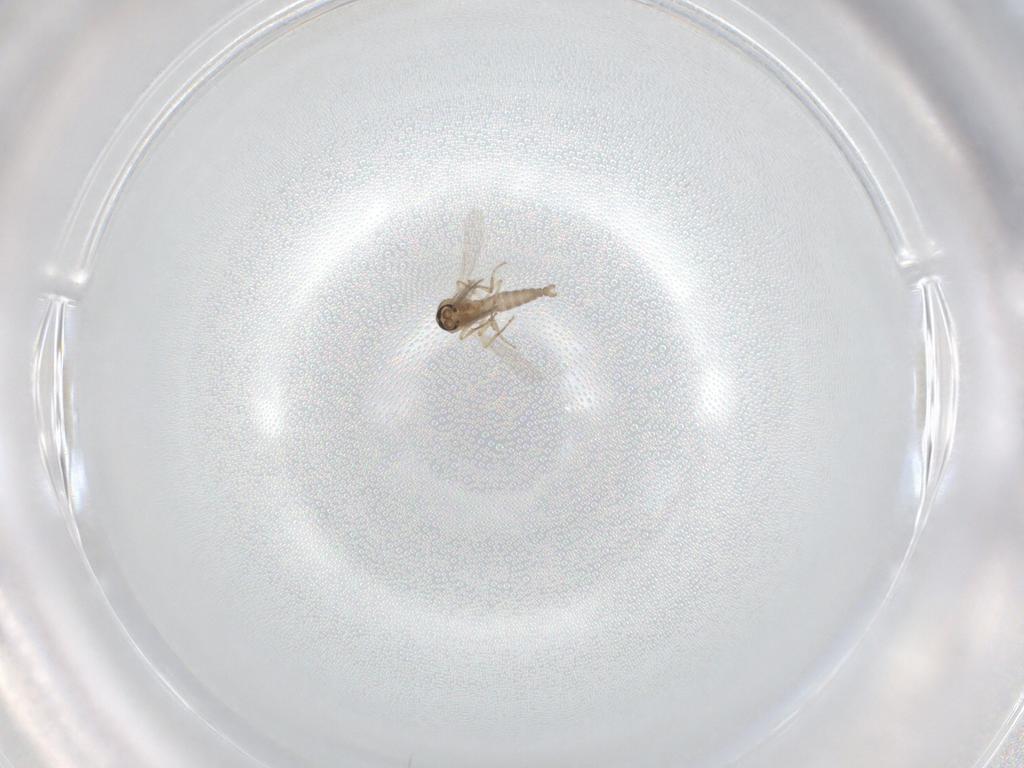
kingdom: Animalia
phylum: Arthropoda
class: Insecta
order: Diptera
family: Ceratopogonidae
